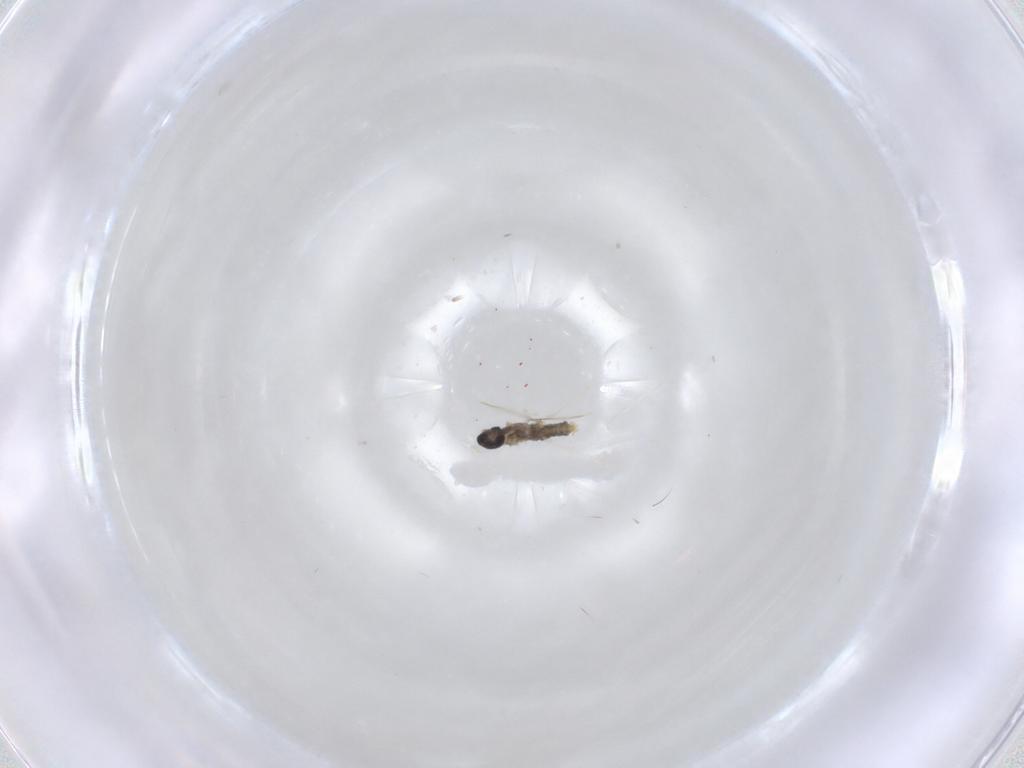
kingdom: Animalia
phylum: Arthropoda
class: Insecta
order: Diptera
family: Cecidomyiidae
